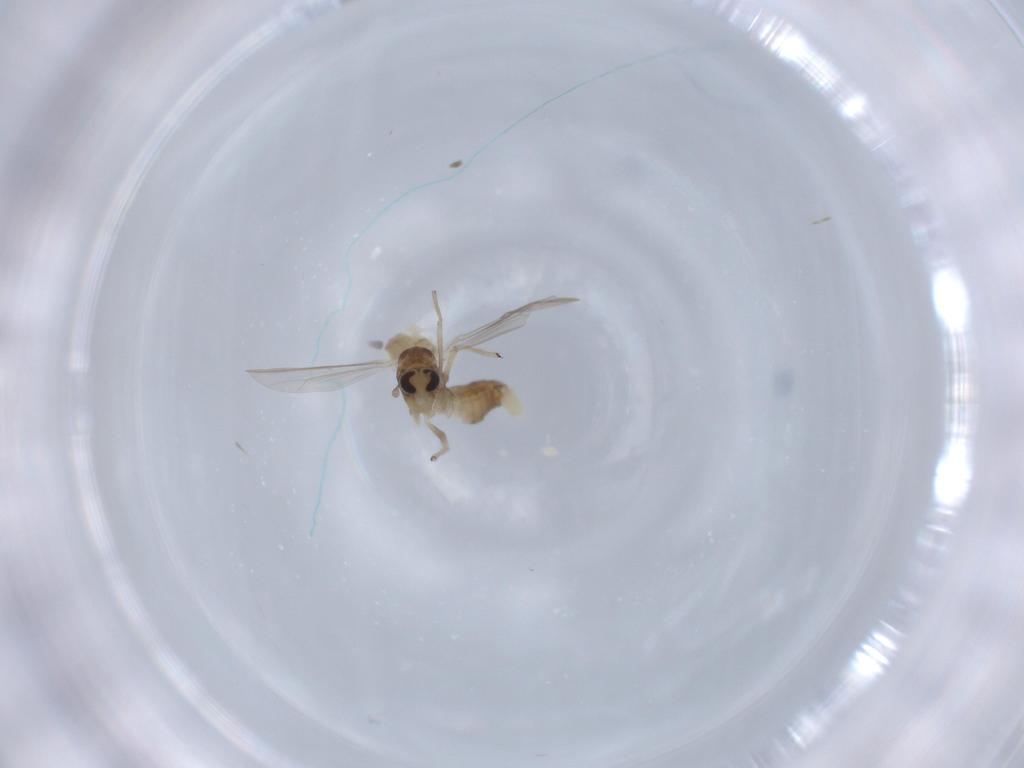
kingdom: Animalia
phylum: Arthropoda
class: Insecta
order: Diptera
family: Chironomidae
